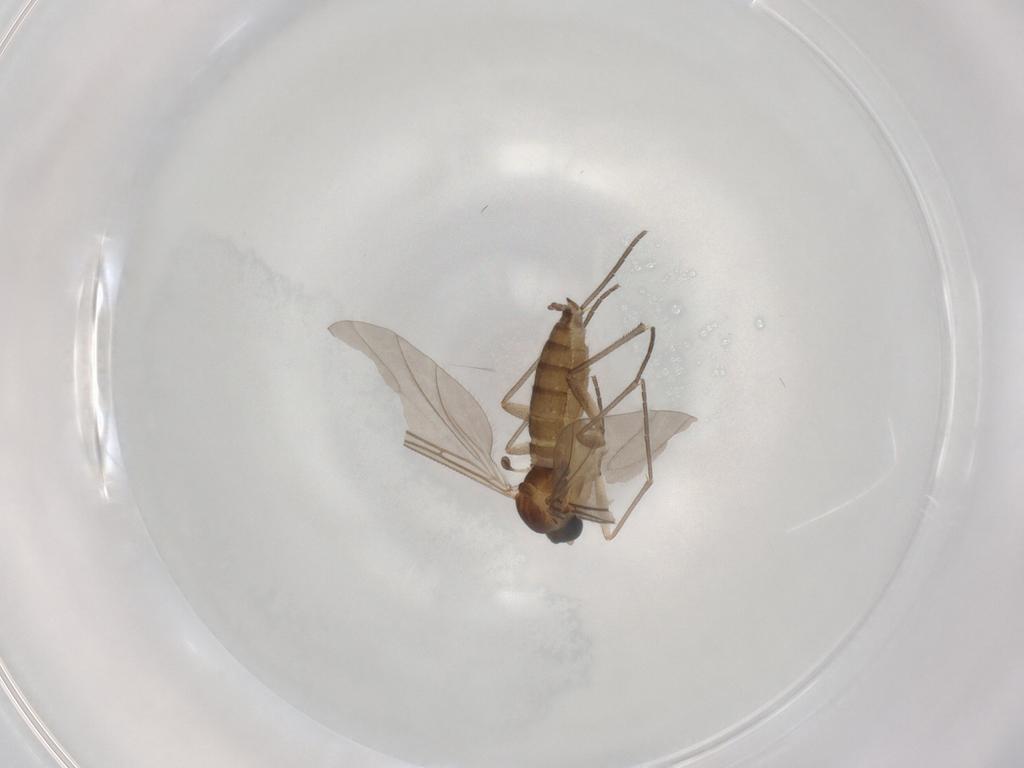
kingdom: Animalia
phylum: Arthropoda
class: Insecta
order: Diptera
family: Sciaridae
